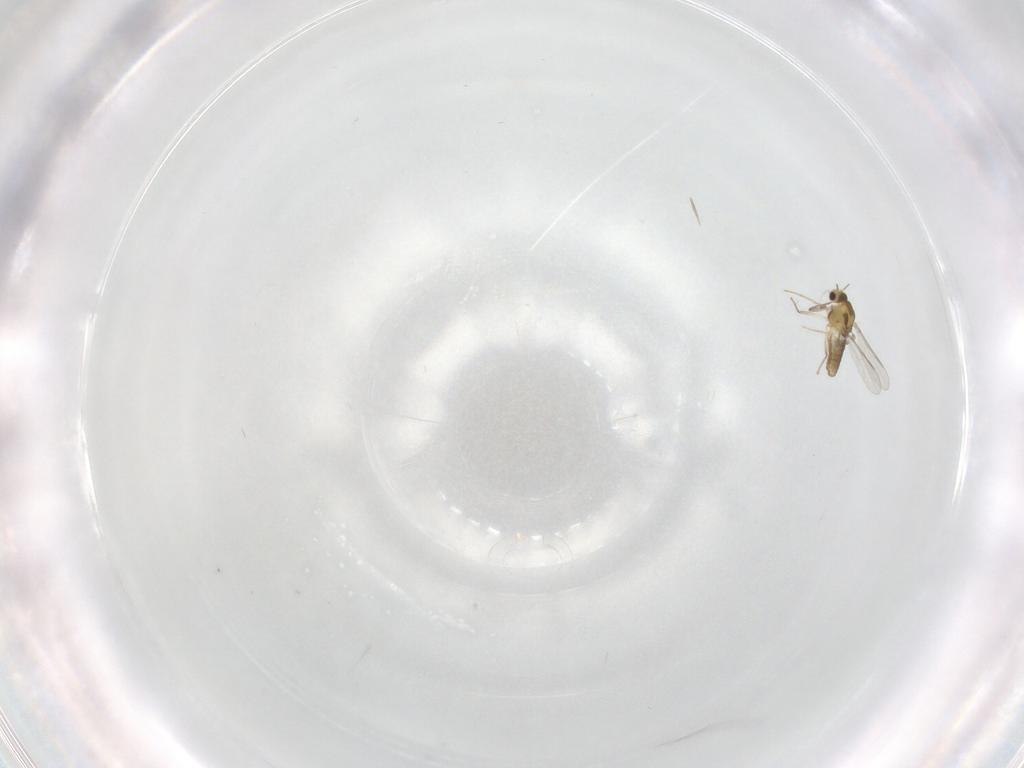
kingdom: Animalia
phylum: Arthropoda
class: Insecta
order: Diptera
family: Chironomidae
